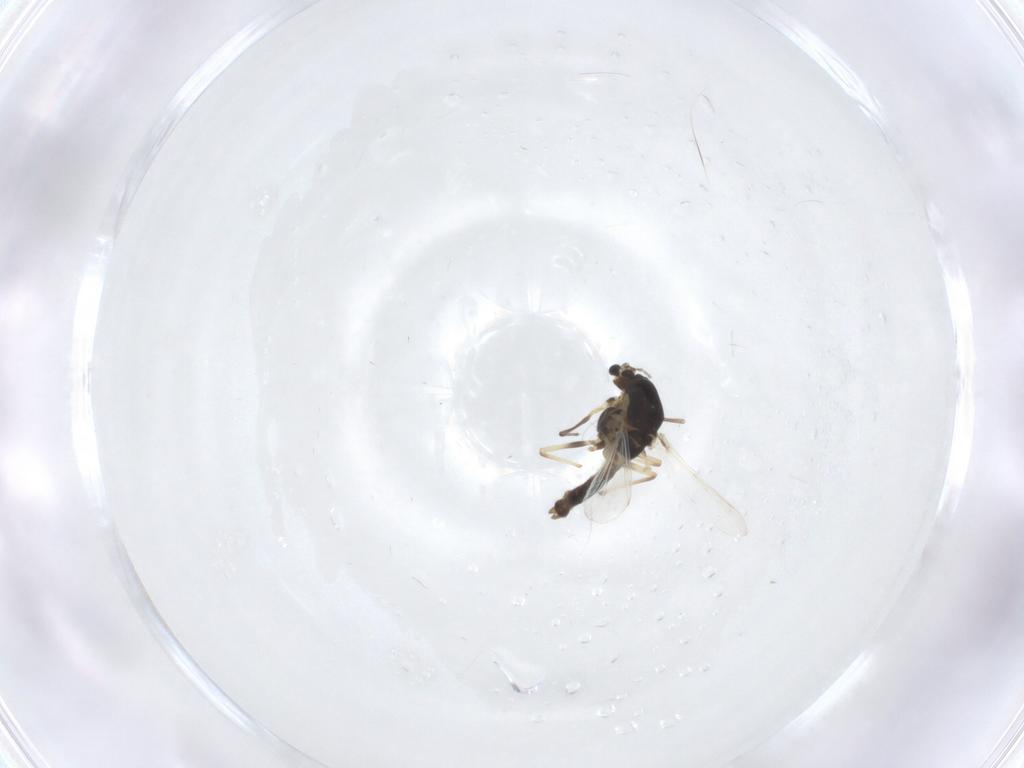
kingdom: Animalia
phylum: Arthropoda
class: Insecta
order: Diptera
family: Chironomidae
